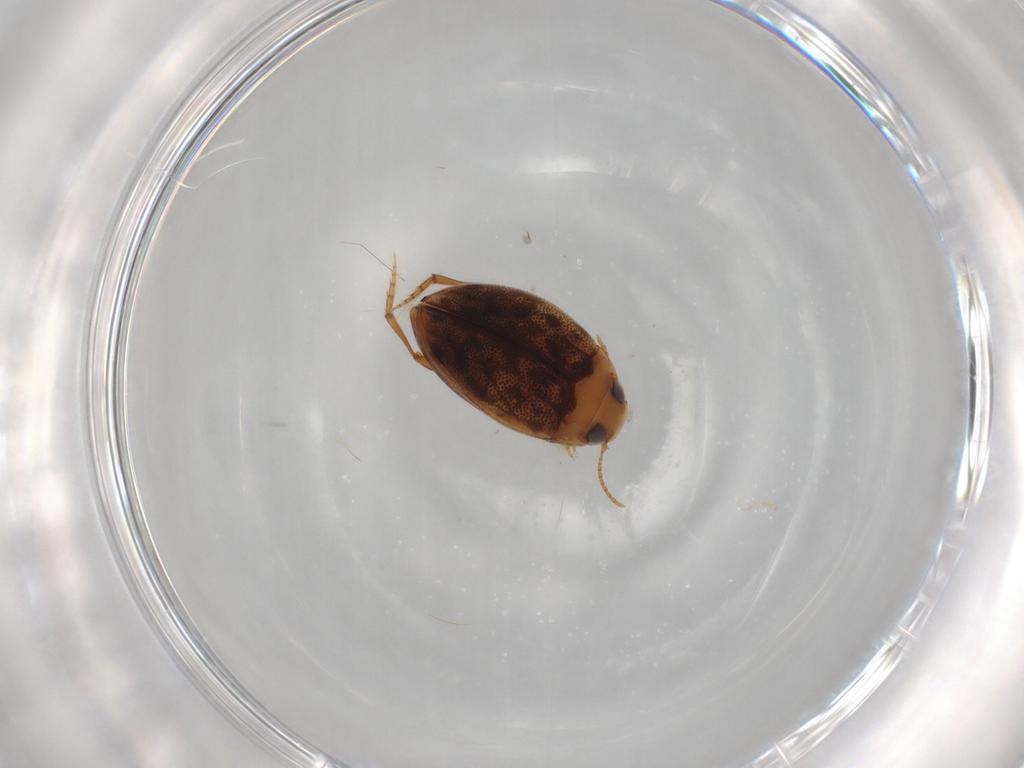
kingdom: Animalia
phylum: Arthropoda
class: Insecta
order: Coleoptera
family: Dytiscidae
